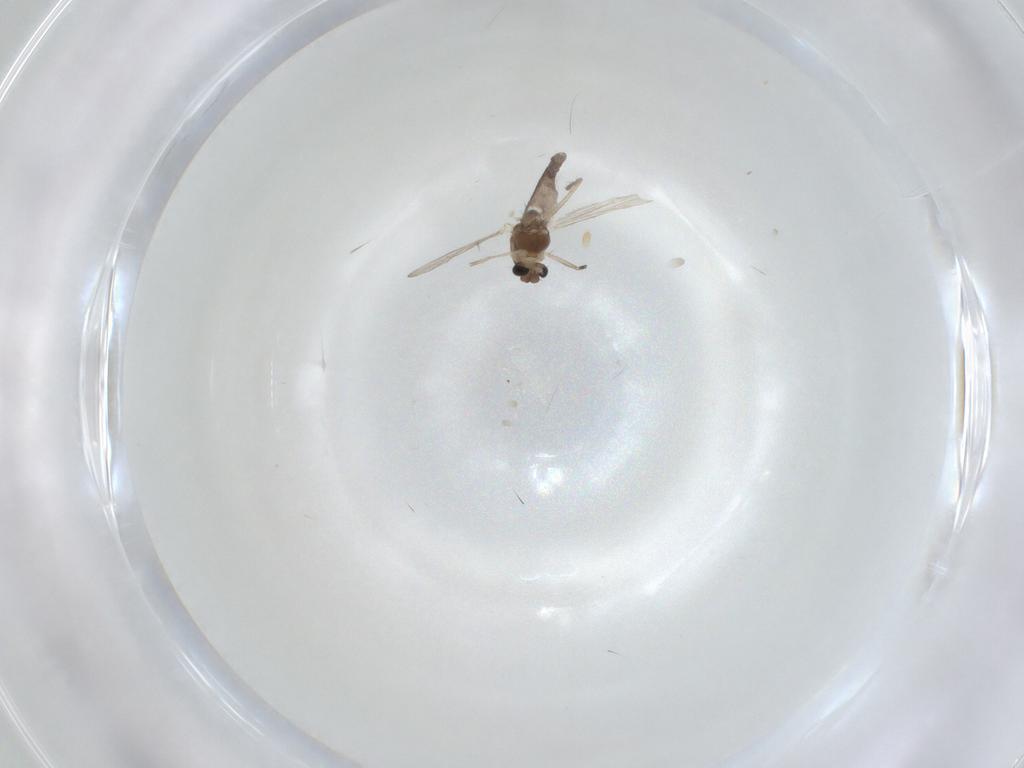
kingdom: Animalia
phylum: Arthropoda
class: Insecta
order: Diptera
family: Chironomidae
